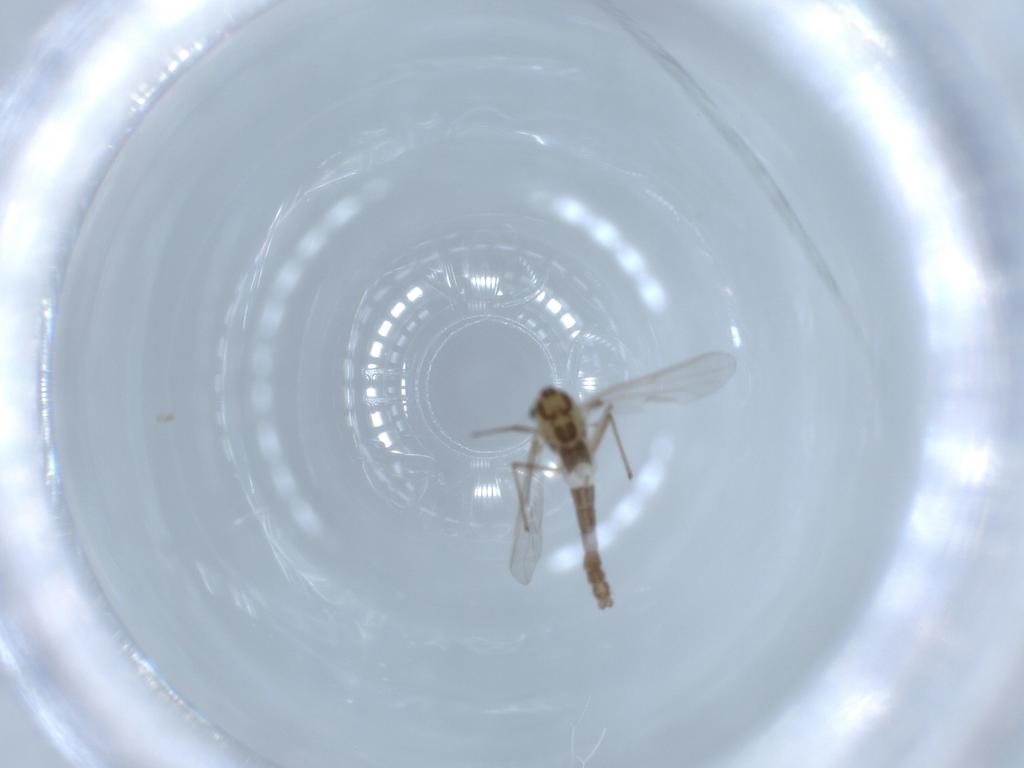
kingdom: Animalia
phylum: Arthropoda
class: Insecta
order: Diptera
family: Chironomidae
